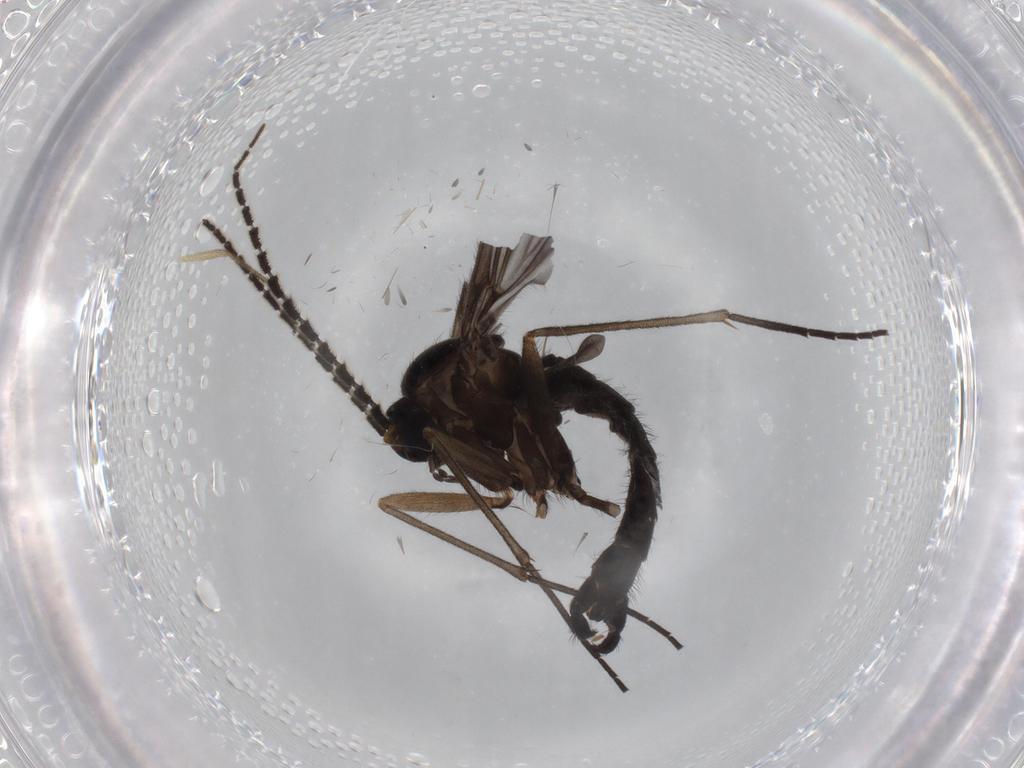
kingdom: Animalia
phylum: Arthropoda
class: Insecta
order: Diptera
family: Sciaridae
